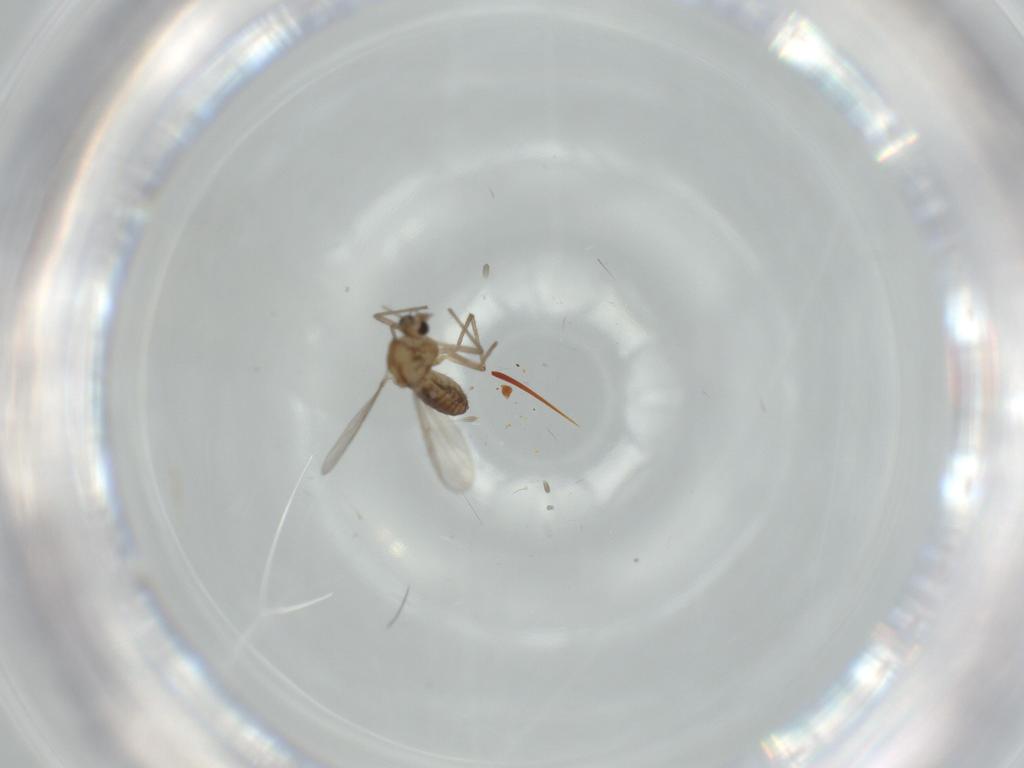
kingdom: Animalia
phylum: Arthropoda
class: Insecta
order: Diptera
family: Chironomidae
